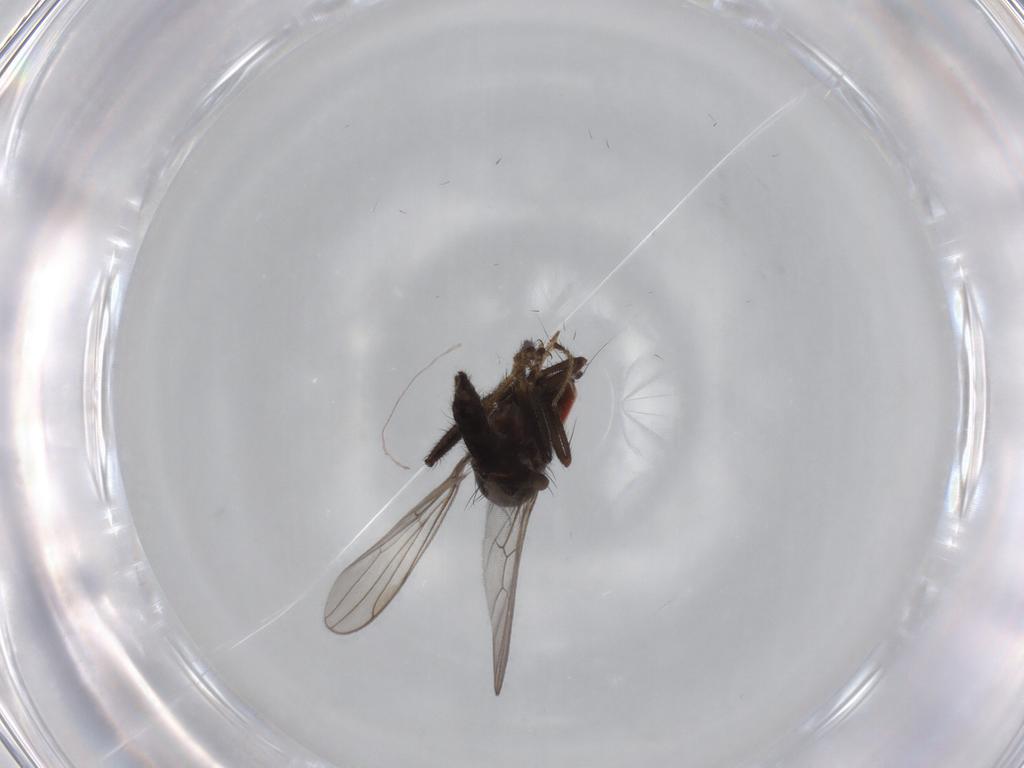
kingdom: Animalia
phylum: Arthropoda
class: Insecta
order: Diptera
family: Hybotidae
